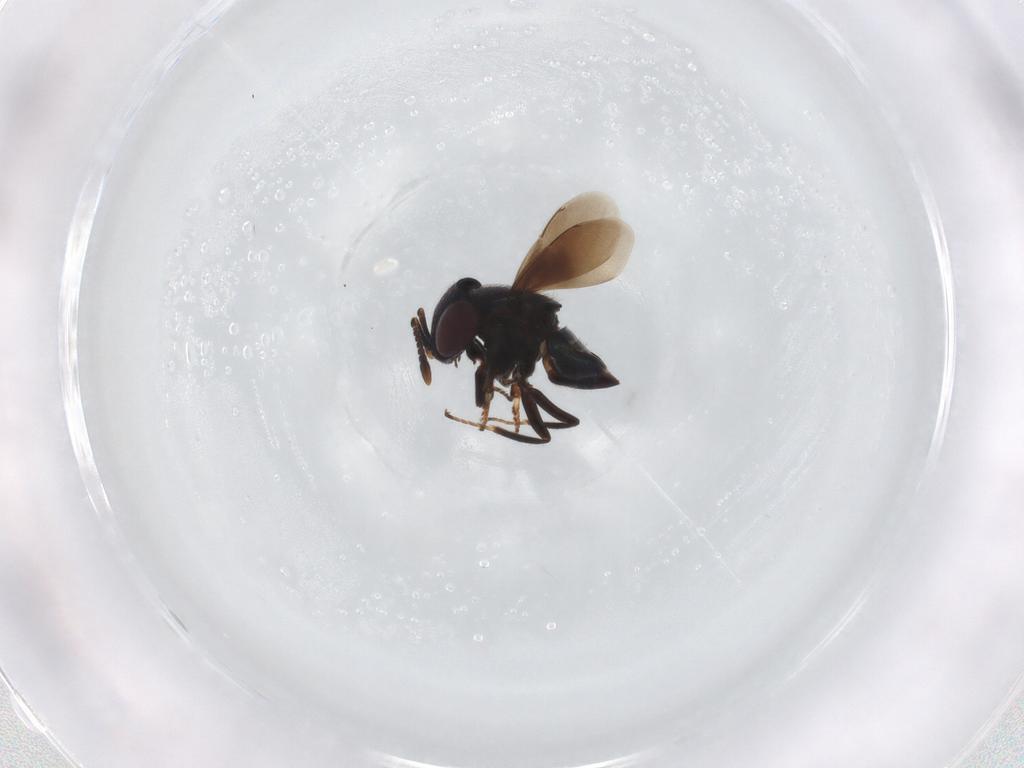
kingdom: Animalia
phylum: Arthropoda
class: Insecta
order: Hymenoptera
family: Encyrtidae
